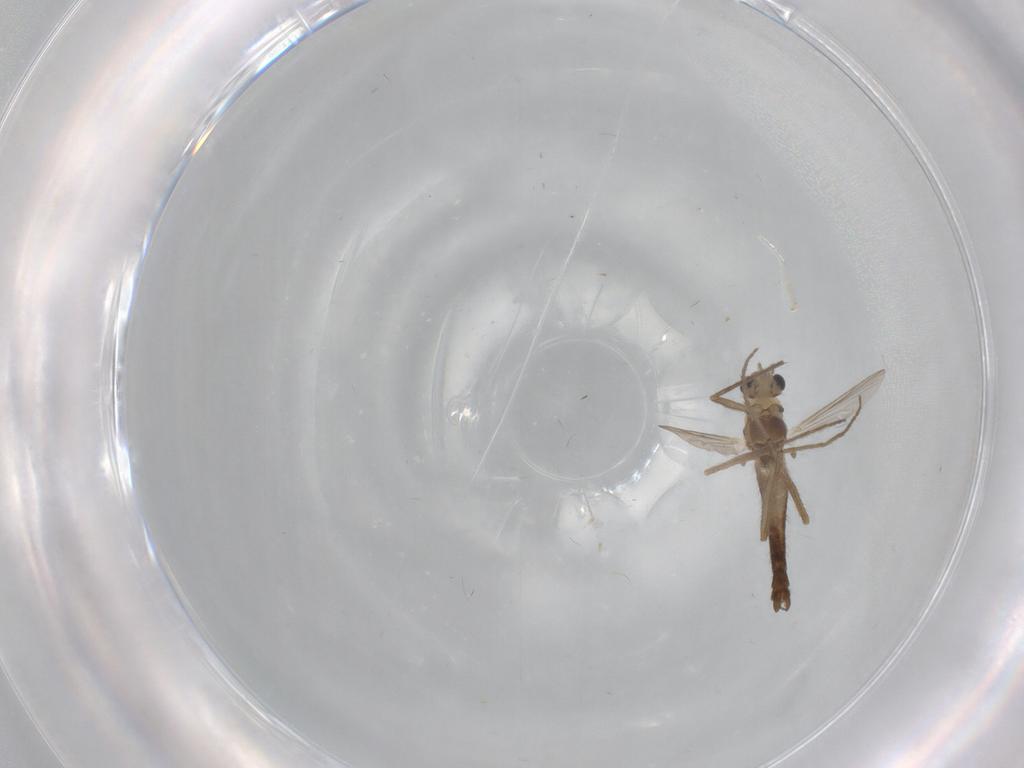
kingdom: Animalia
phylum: Arthropoda
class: Insecta
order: Diptera
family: Chironomidae
